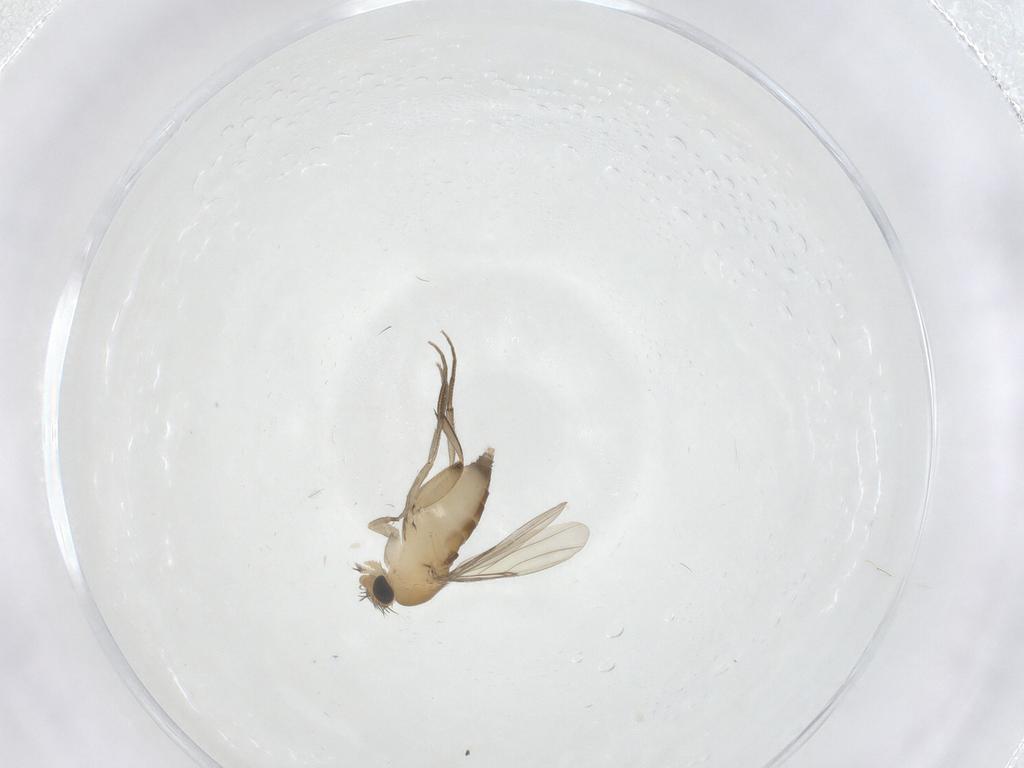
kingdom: Animalia
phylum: Arthropoda
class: Insecta
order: Diptera
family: Phoridae
